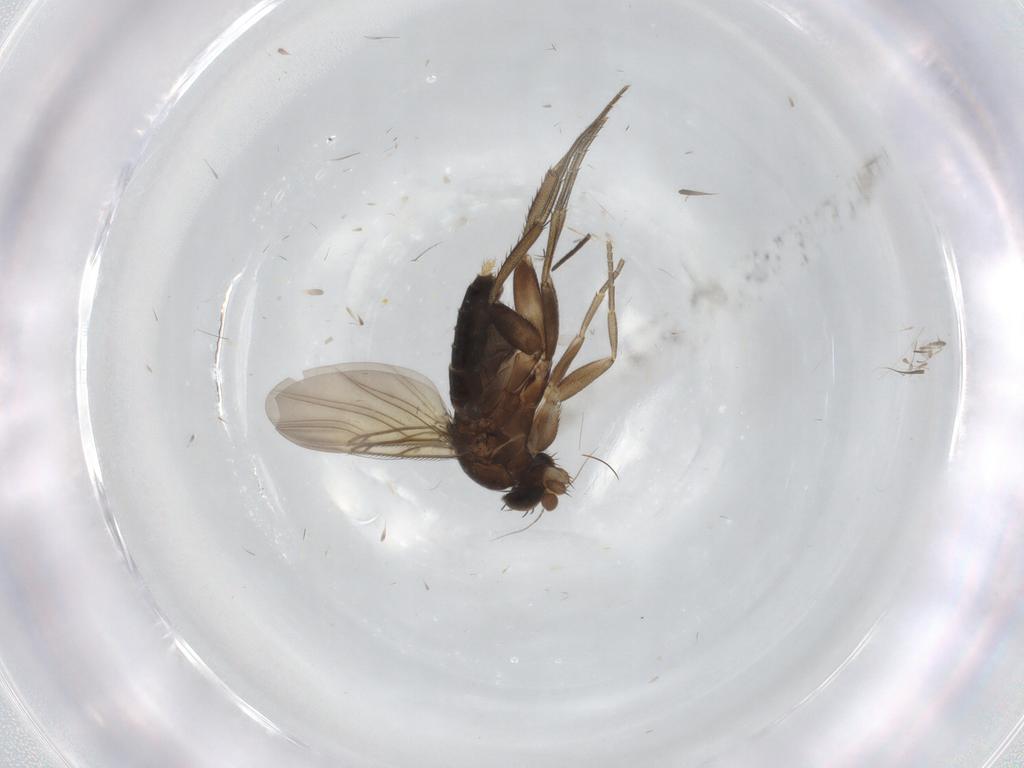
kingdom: Animalia
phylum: Arthropoda
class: Insecta
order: Diptera
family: Phoridae
